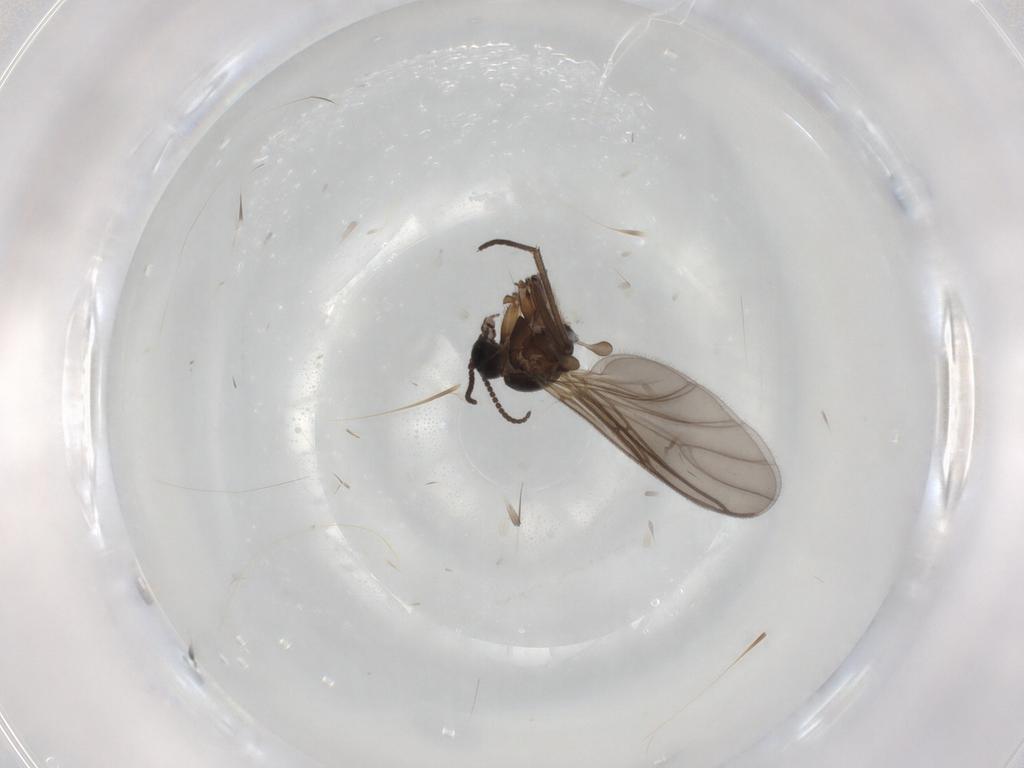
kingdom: Animalia
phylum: Arthropoda
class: Insecta
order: Diptera
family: Sciaridae
